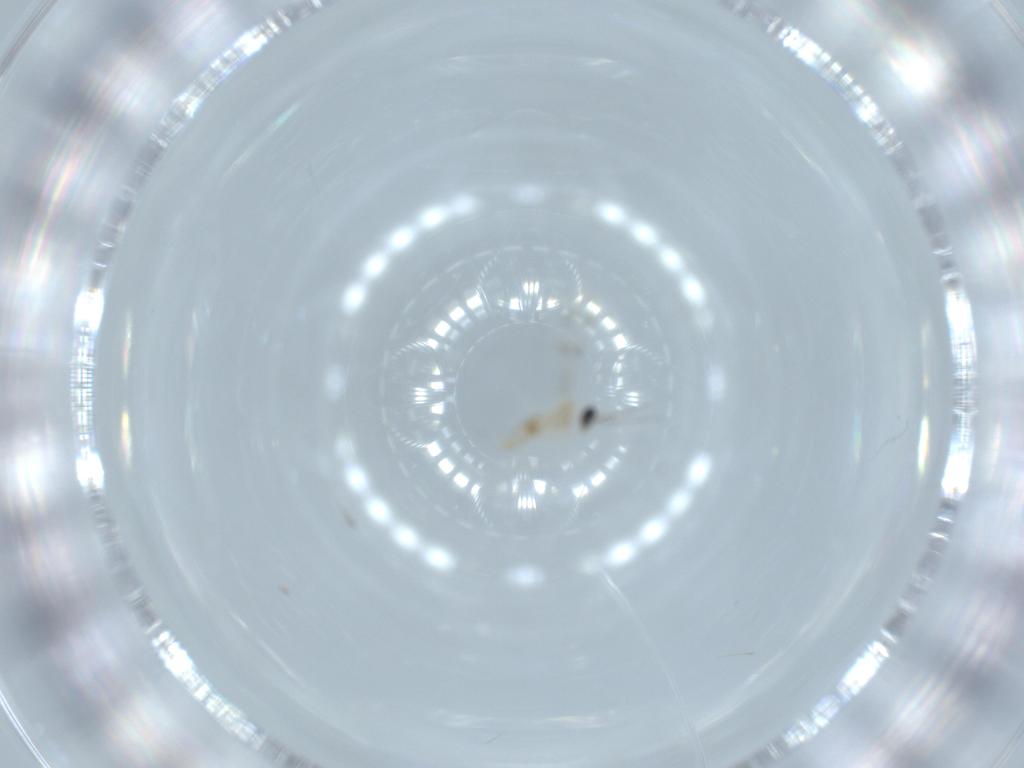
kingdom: Animalia
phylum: Arthropoda
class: Insecta
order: Diptera
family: Cecidomyiidae
